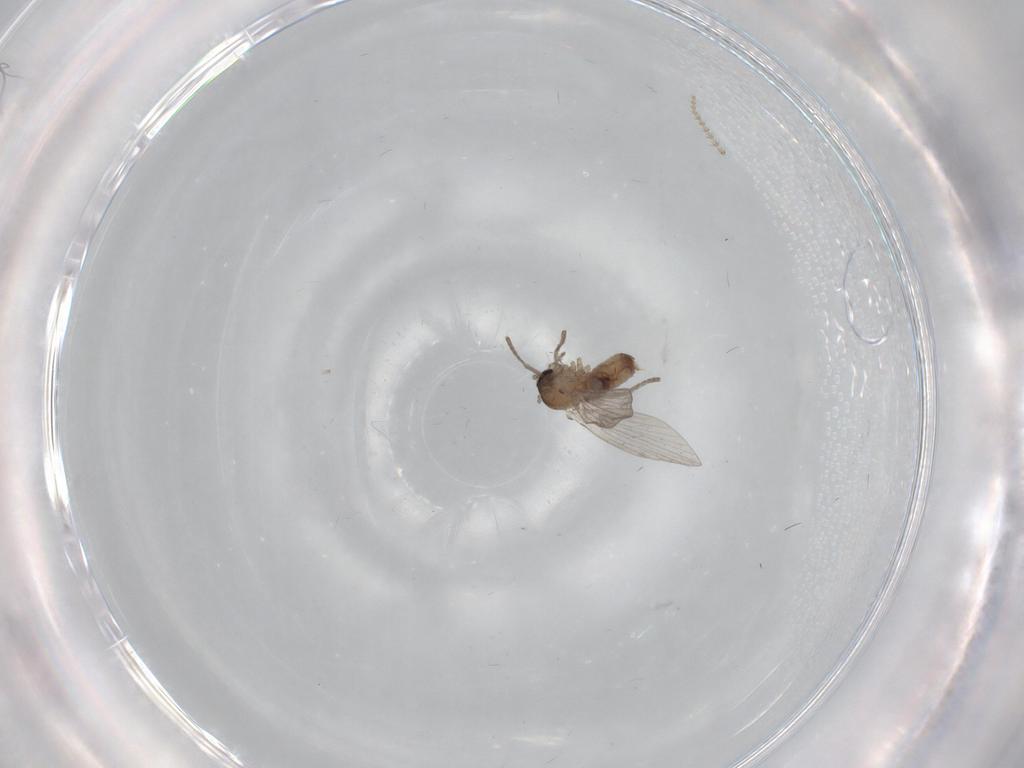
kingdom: Animalia
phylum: Arthropoda
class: Insecta
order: Diptera
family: Psychodidae
